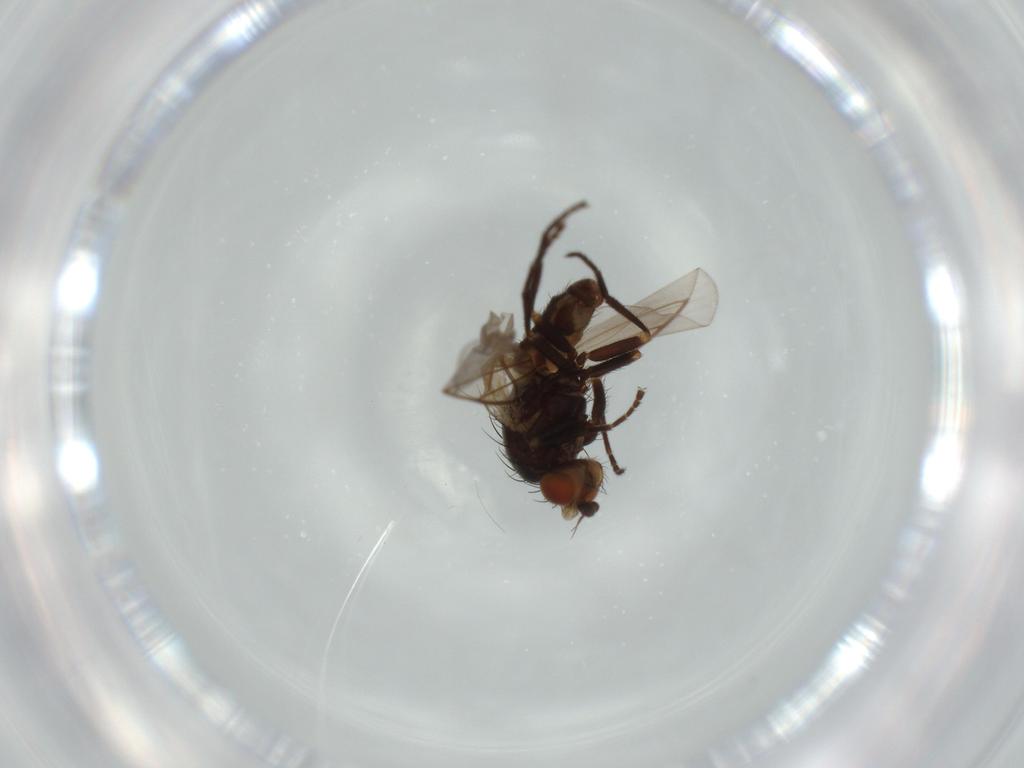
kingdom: Animalia
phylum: Arthropoda
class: Insecta
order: Diptera
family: Agromyzidae
